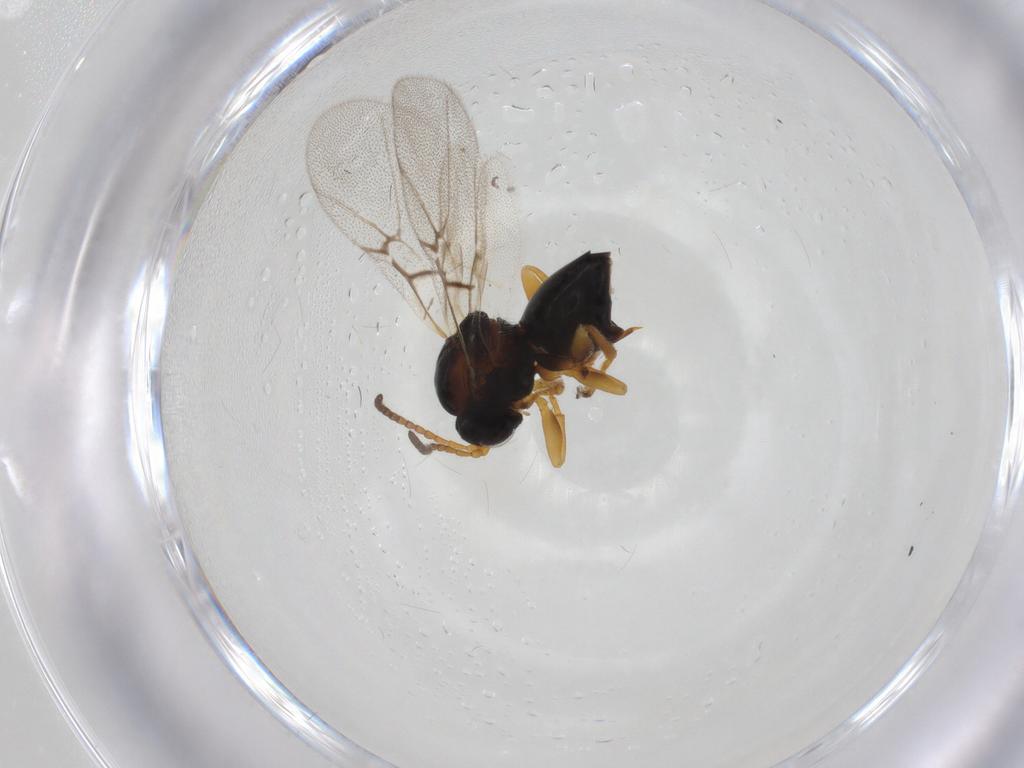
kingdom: Animalia
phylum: Arthropoda
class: Insecta
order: Hymenoptera
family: Cynipidae
